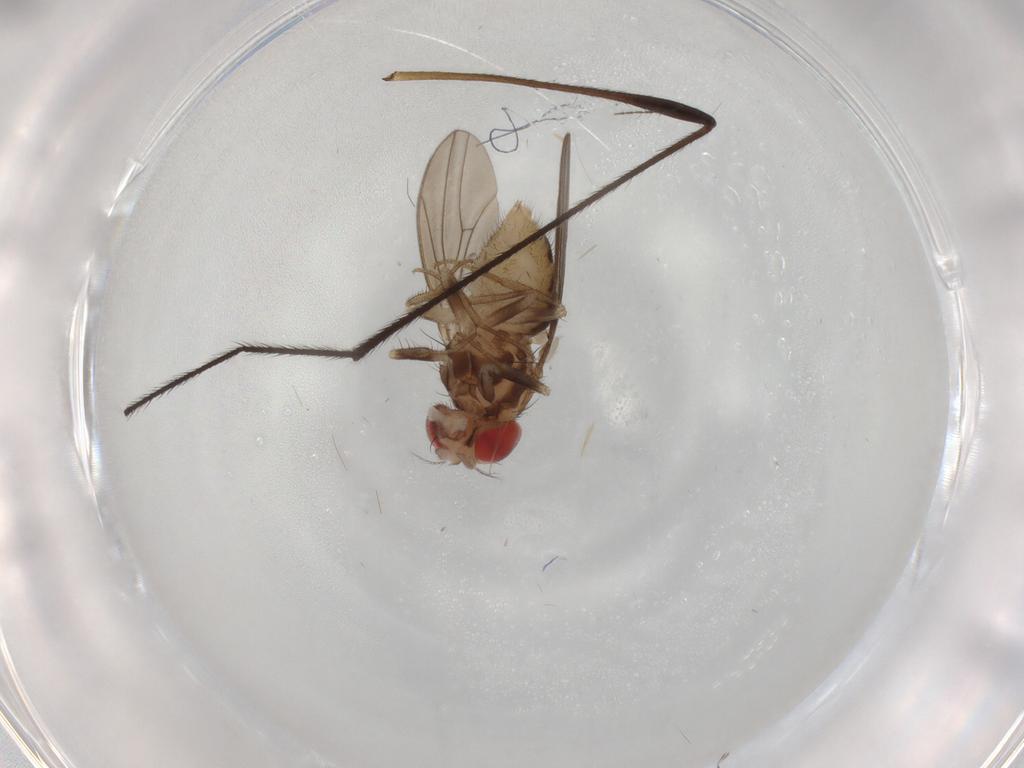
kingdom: Animalia
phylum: Arthropoda
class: Insecta
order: Diptera
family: Drosophilidae
